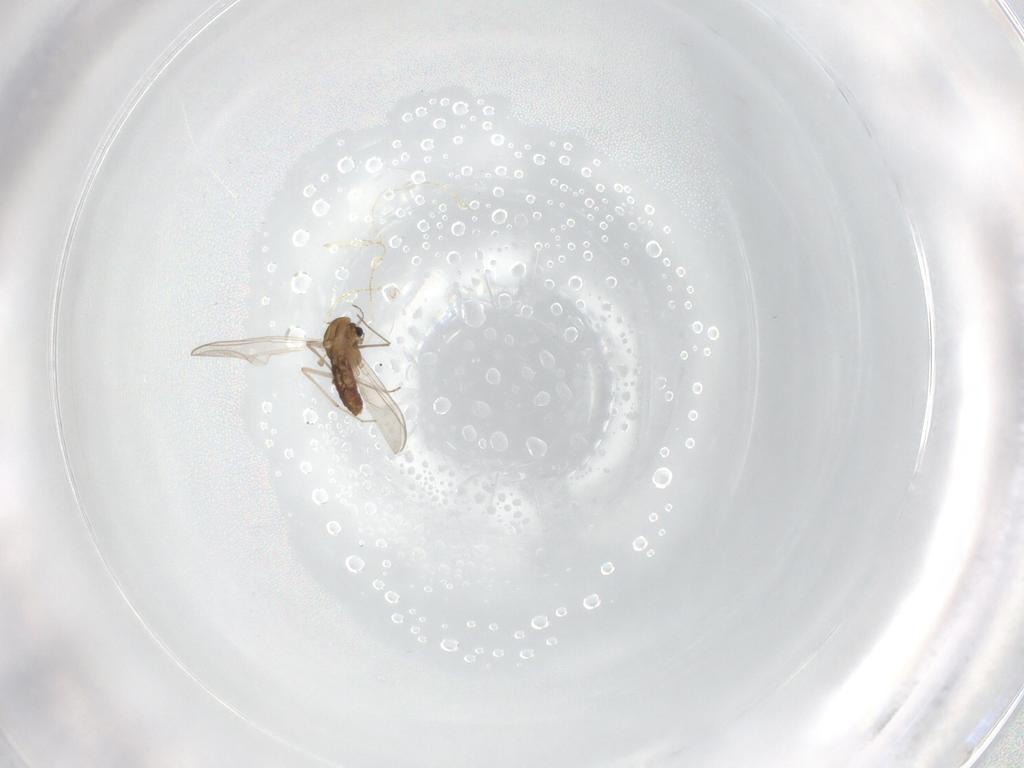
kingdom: Animalia
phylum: Arthropoda
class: Insecta
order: Diptera
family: Chironomidae
